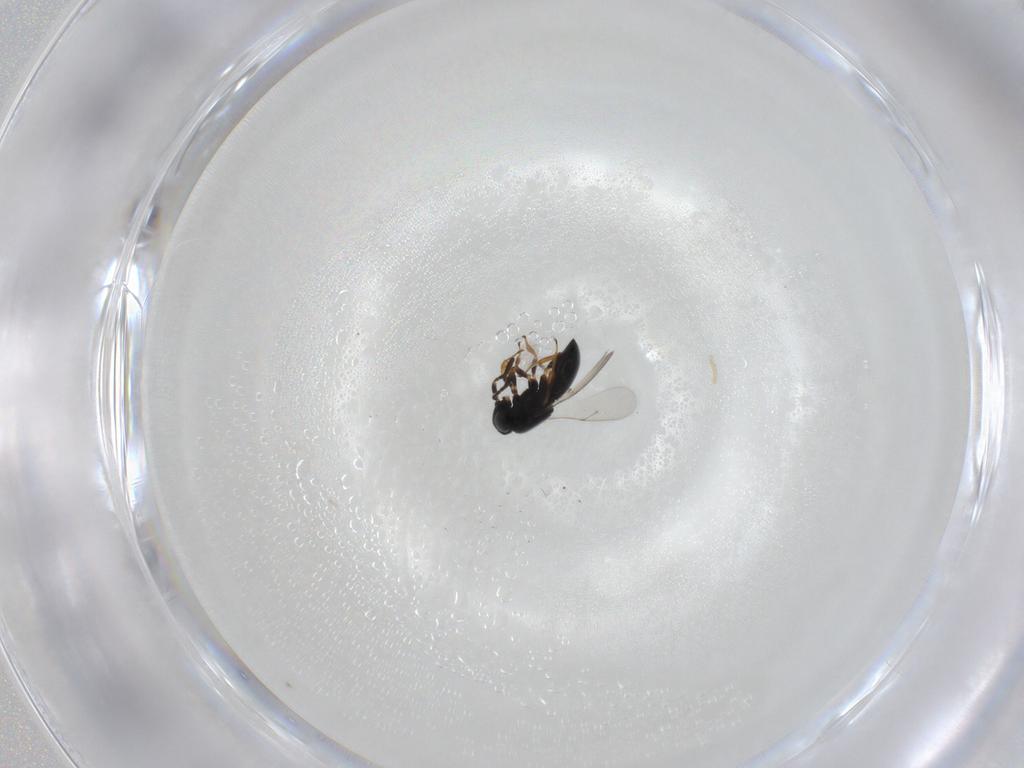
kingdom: Animalia
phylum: Arthropoda
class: Insecta
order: Hymenoptera
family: Scelionidae
